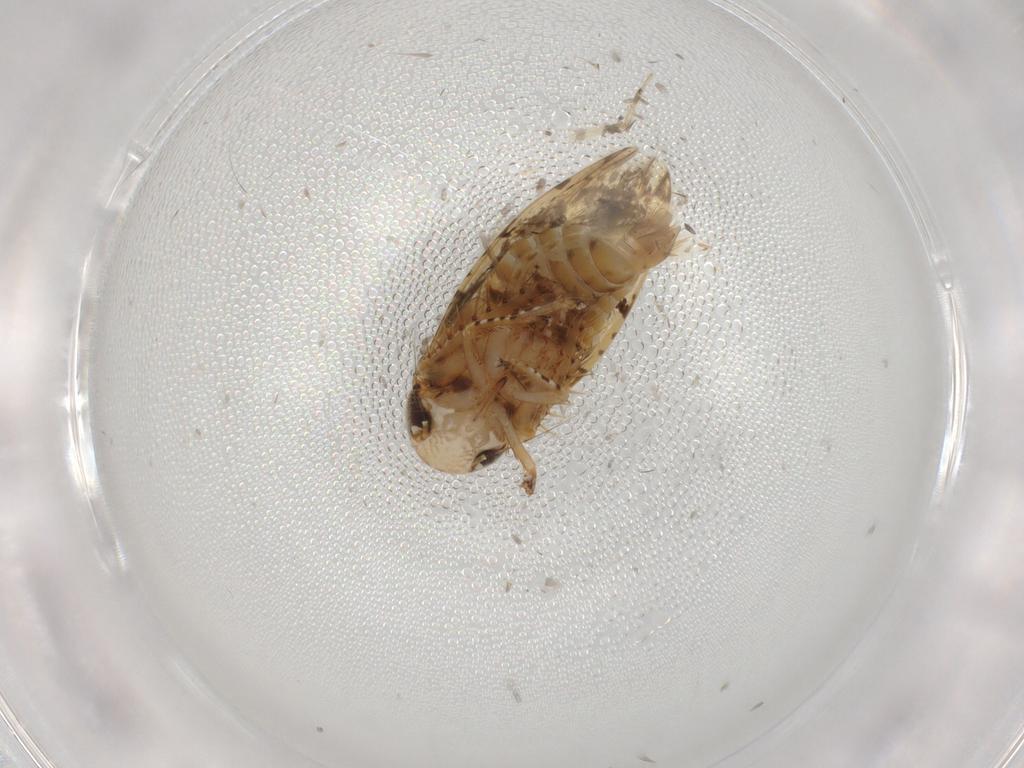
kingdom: Animalia
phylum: Arthropoda
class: Insecta
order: Hemiptera
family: Cicadellidae
